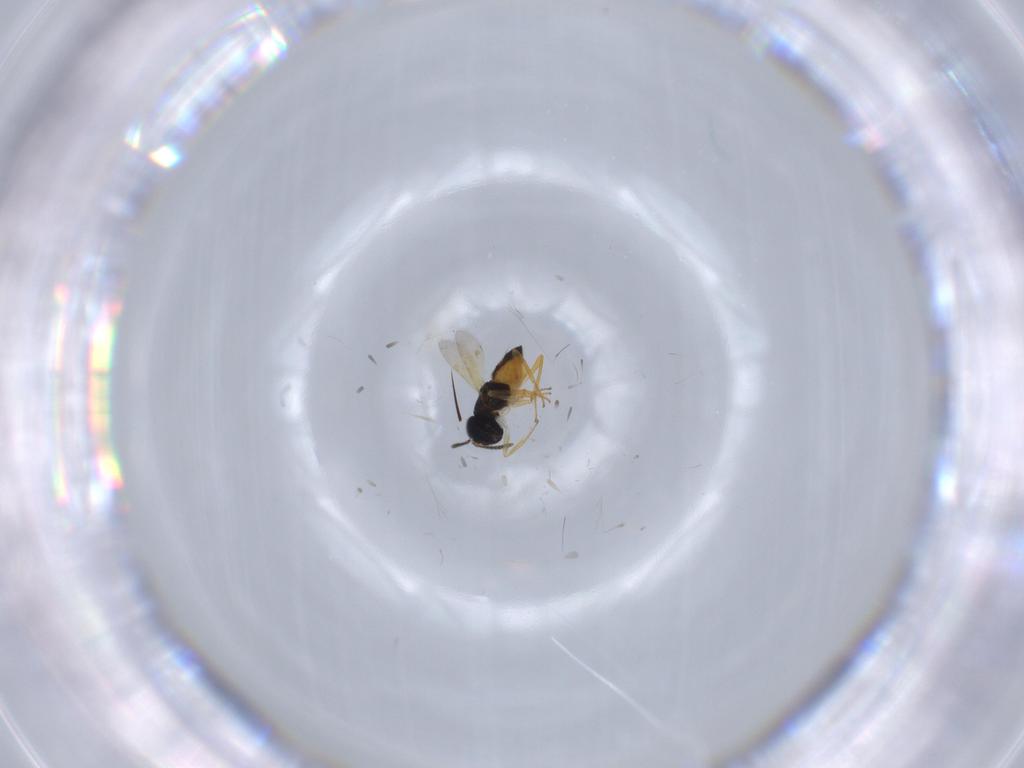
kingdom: Animalia
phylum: Arthropoda
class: Insecta
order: Hymenoptera
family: Formicidae
